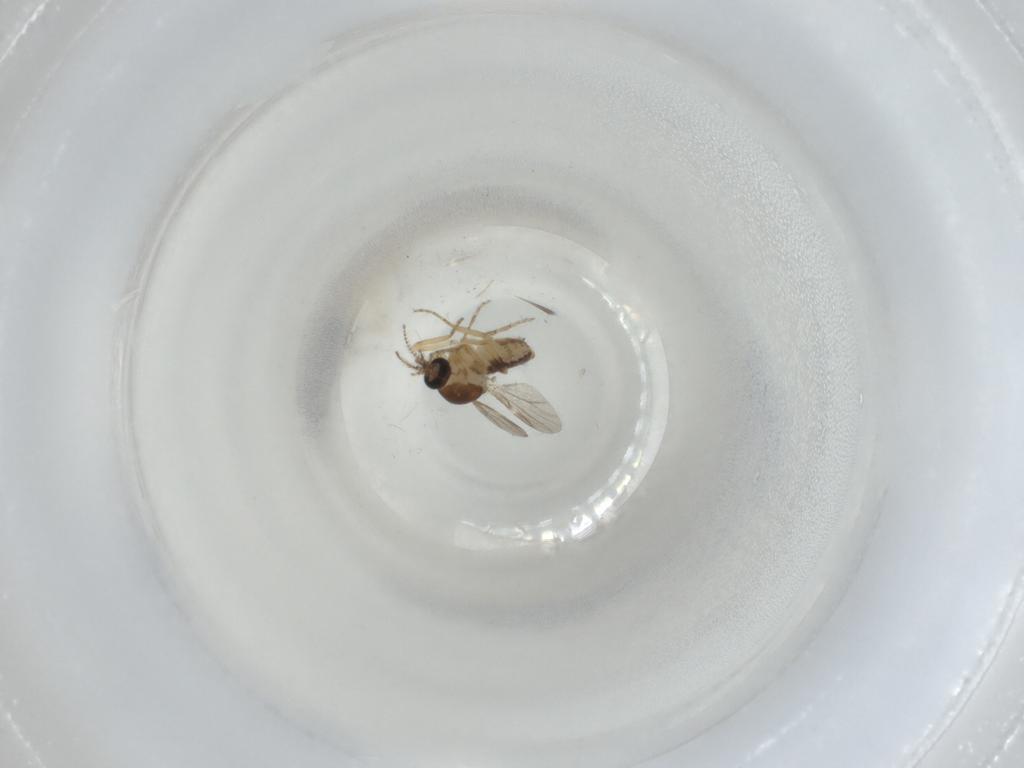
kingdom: Animalia
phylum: Arthropoda
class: Insecta
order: Diptera
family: Ceratopogonidae
